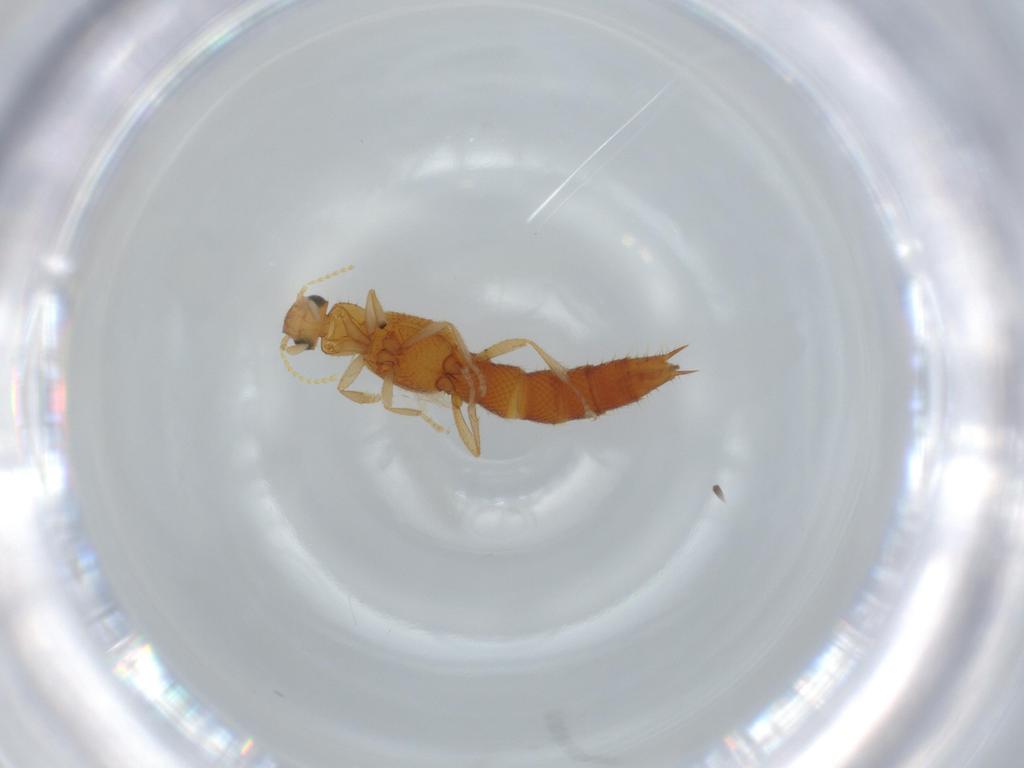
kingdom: Animalia
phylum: Arthropoda
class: Insecta
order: Coleoptera
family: Staphylinidae
